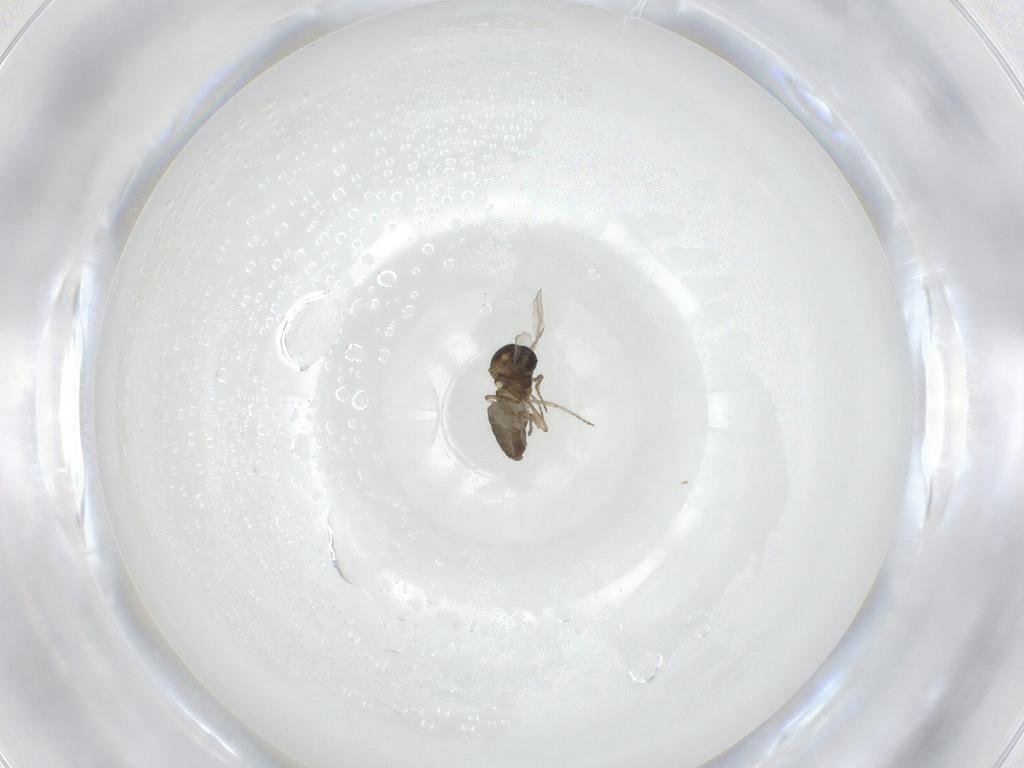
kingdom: Animalia
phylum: Arthropoda
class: Insecta
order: Diptera
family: Ceratopogonidae
